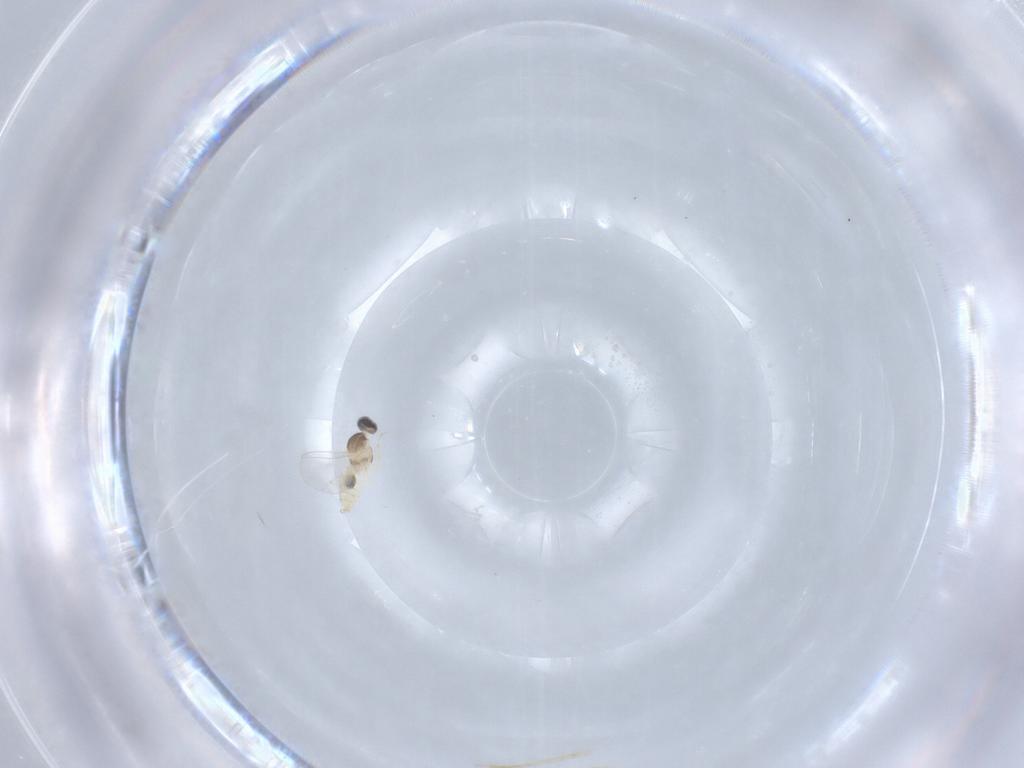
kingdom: Animalia
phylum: Arthropoda
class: Insecta
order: Diptera
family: Cecidomyiidae
